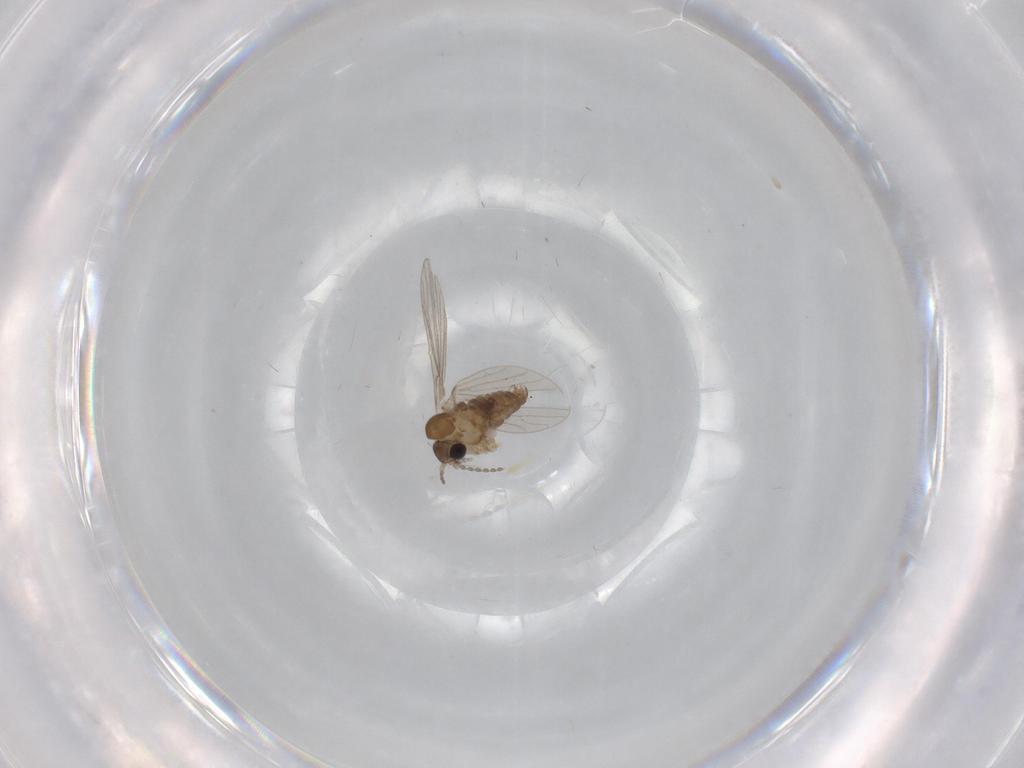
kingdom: Animalia
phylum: Arthropoda
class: Insecta
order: Diptera
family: Psychodidae
